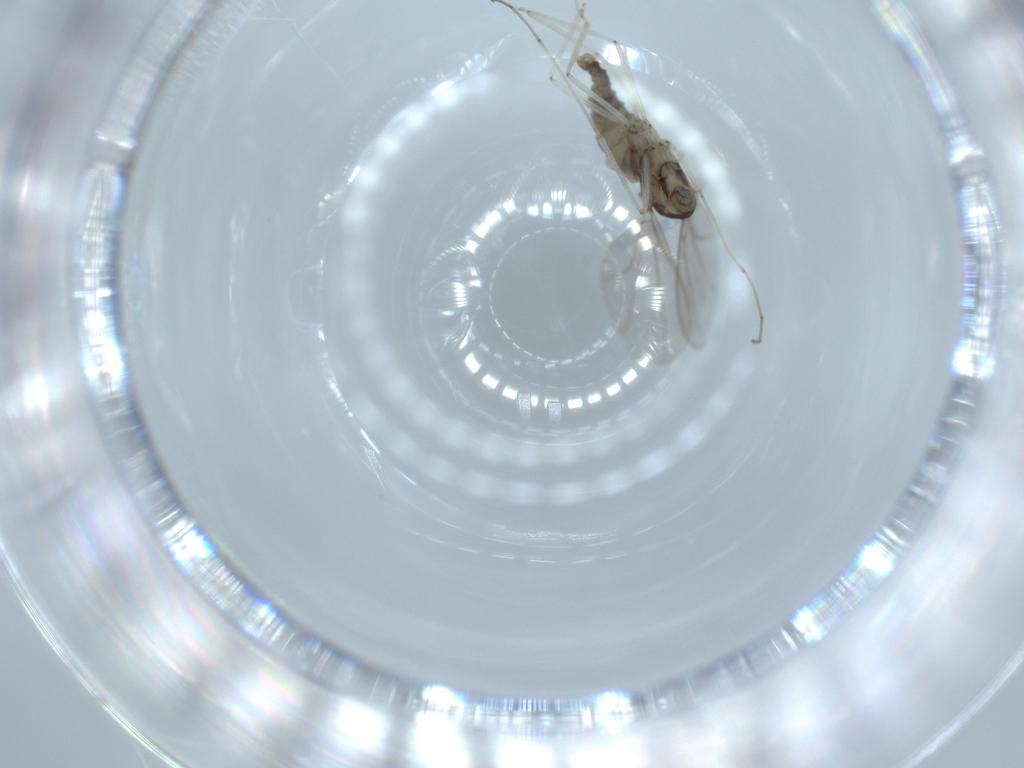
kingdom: Animalia
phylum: Arthropoda
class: Insecta
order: Diptera
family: Cecidomyiidae
